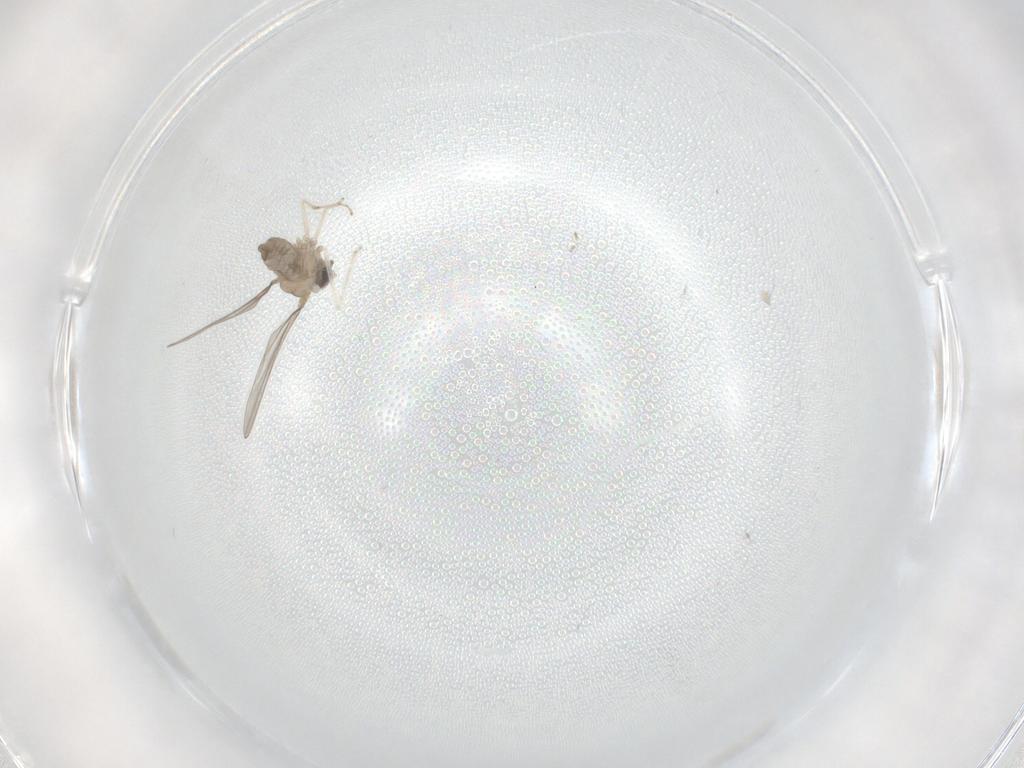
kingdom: Animalia
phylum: Arthropoda
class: Insecta
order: Diptera
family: Cecidomyiidae
